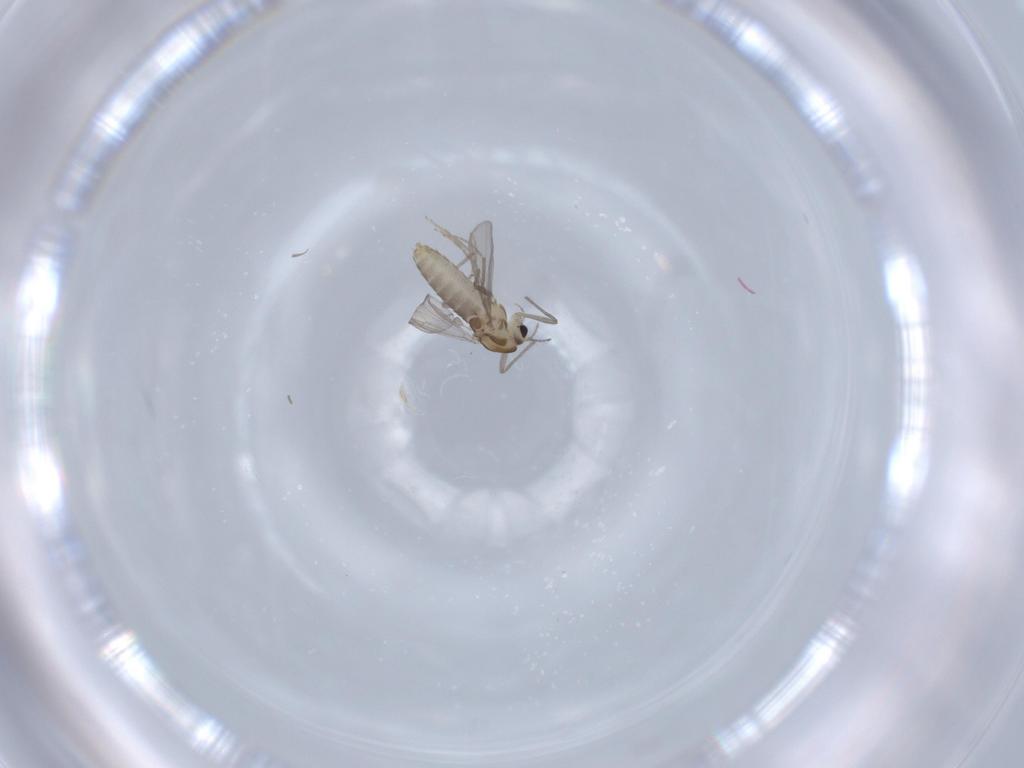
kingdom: Animalia
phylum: Arthropoda
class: Insecta
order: Diptera
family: Chironomidae
